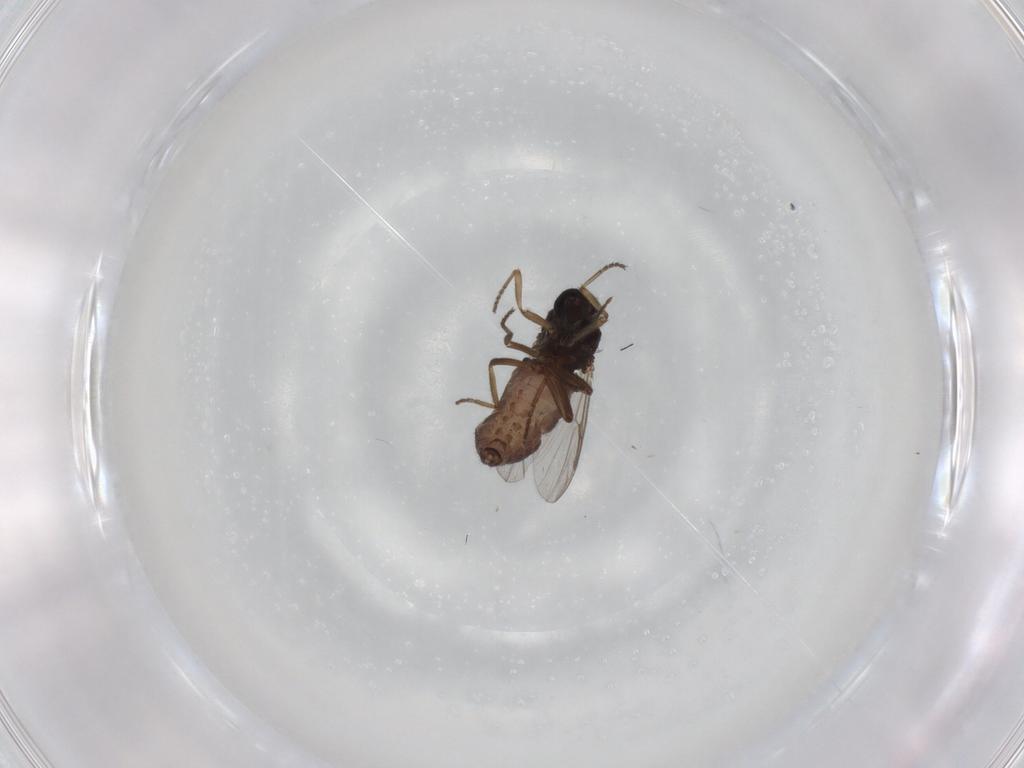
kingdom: Animalia
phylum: Arthropoda
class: Insecta
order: Diptera
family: Ceratopogonidae
